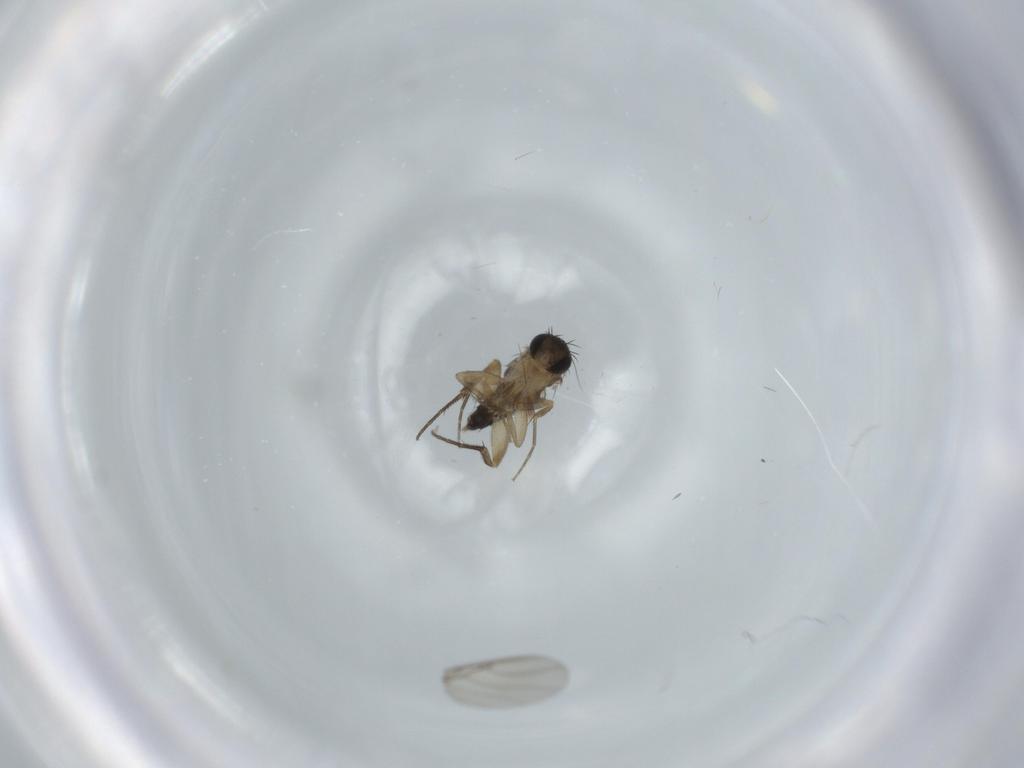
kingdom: Animalia
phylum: Arthropoda
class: Insecta
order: Diptera
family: Phoridae
